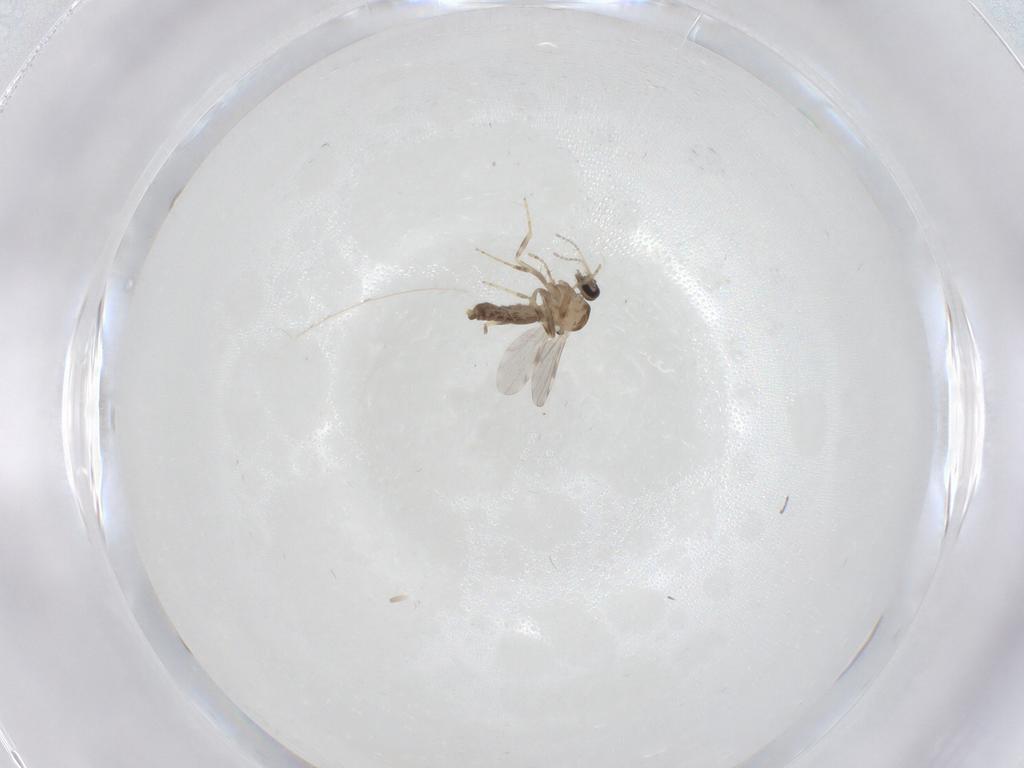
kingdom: Animalia
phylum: Arthropoda
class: Insecta
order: Diptera
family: Ceratopogonidae
